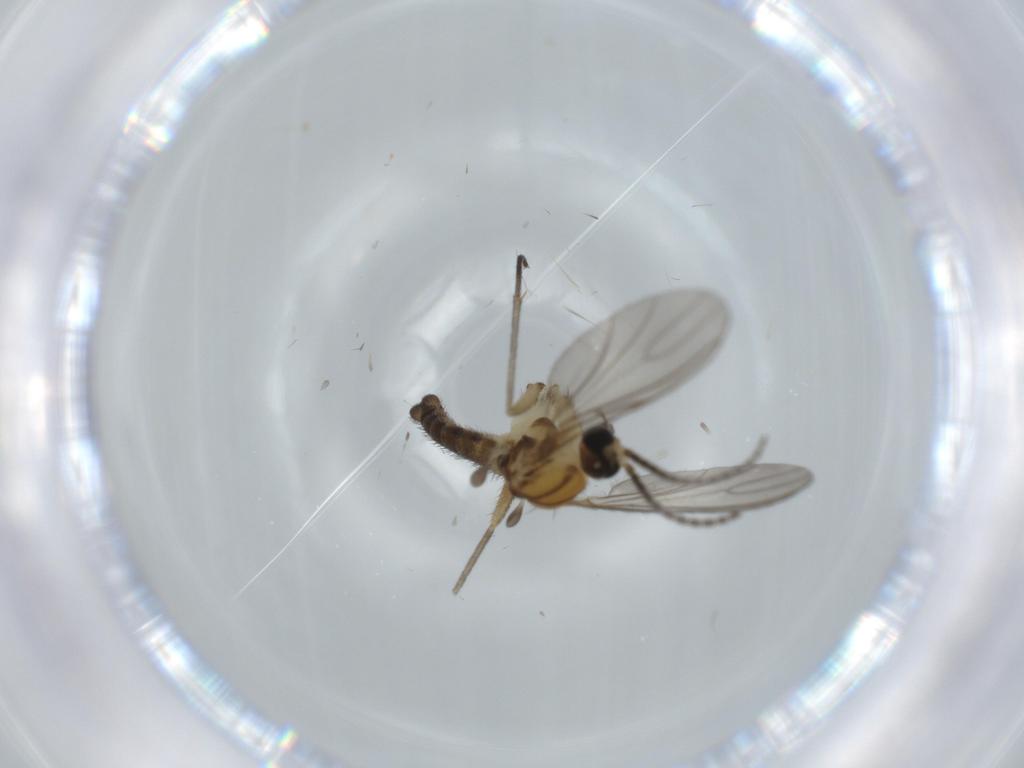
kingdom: Animalia
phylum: Arthropoda
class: Insecta
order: Diptera
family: Sciaridae
